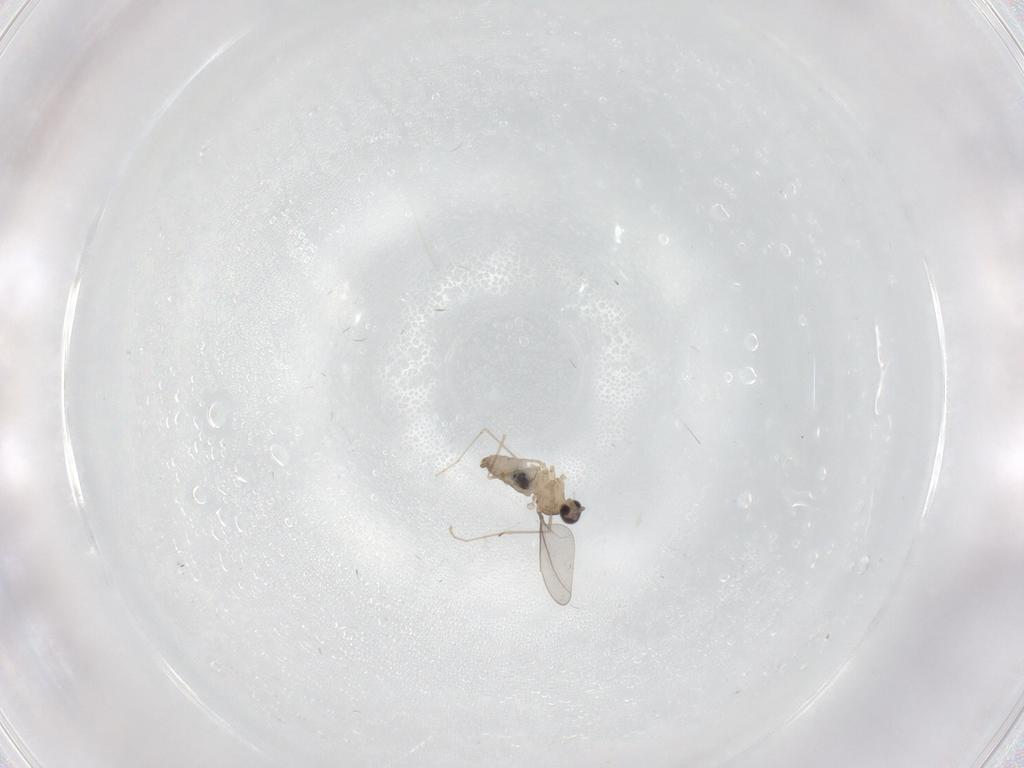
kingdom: Animalia
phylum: Arthropoda
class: Insecta
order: Diptera
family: Cecidomyiidae
